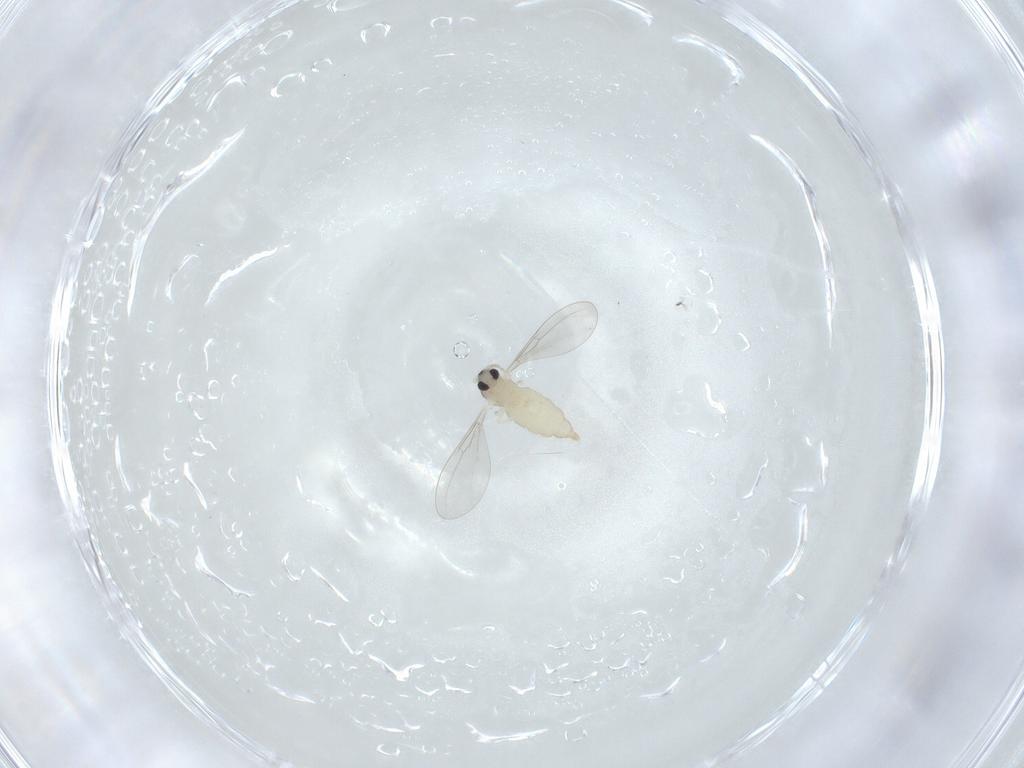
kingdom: Animalia
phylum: Arthropoda
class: Insecta
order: Diptera
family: Cecidomyiidae
